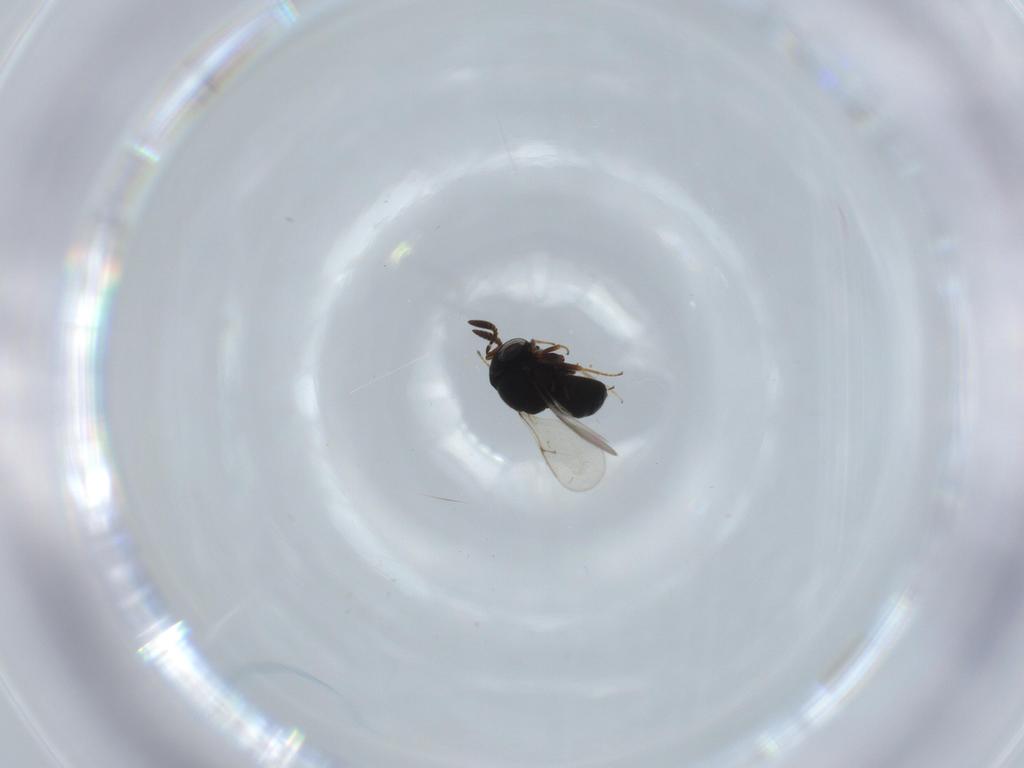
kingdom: Animalia
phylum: Arthropoda
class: Insecta
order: Hymenoptera
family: Scelionidae
